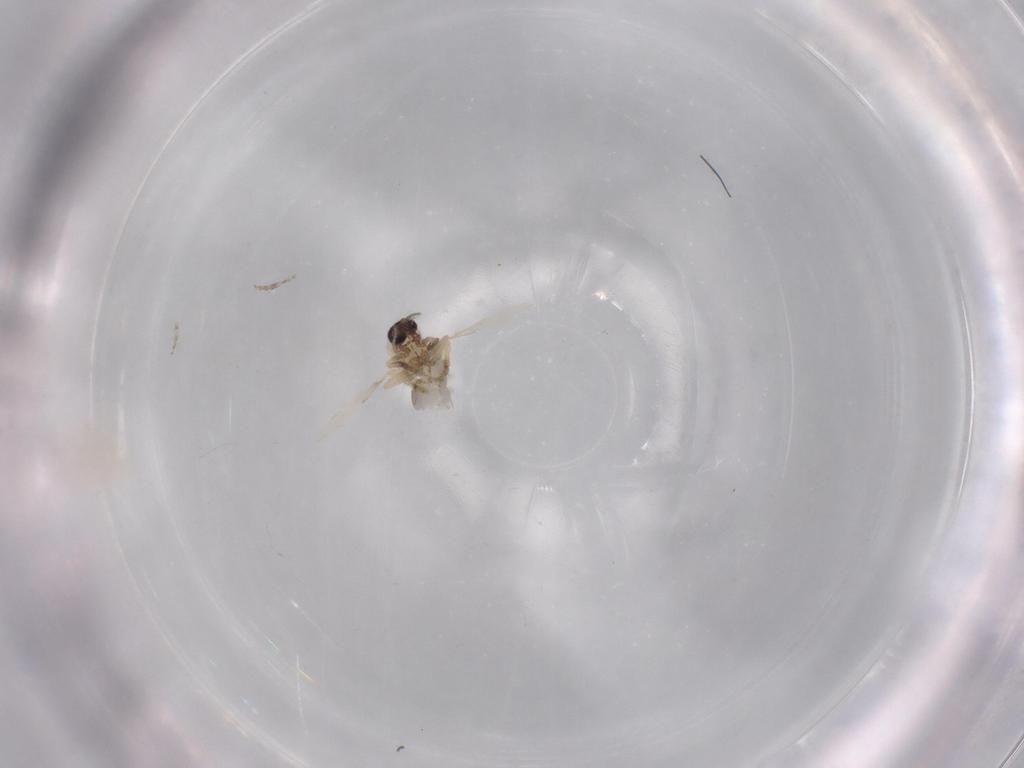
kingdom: Animalia
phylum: Arthropoda
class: Insecta
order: Diptera
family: Ceratopogonidae
